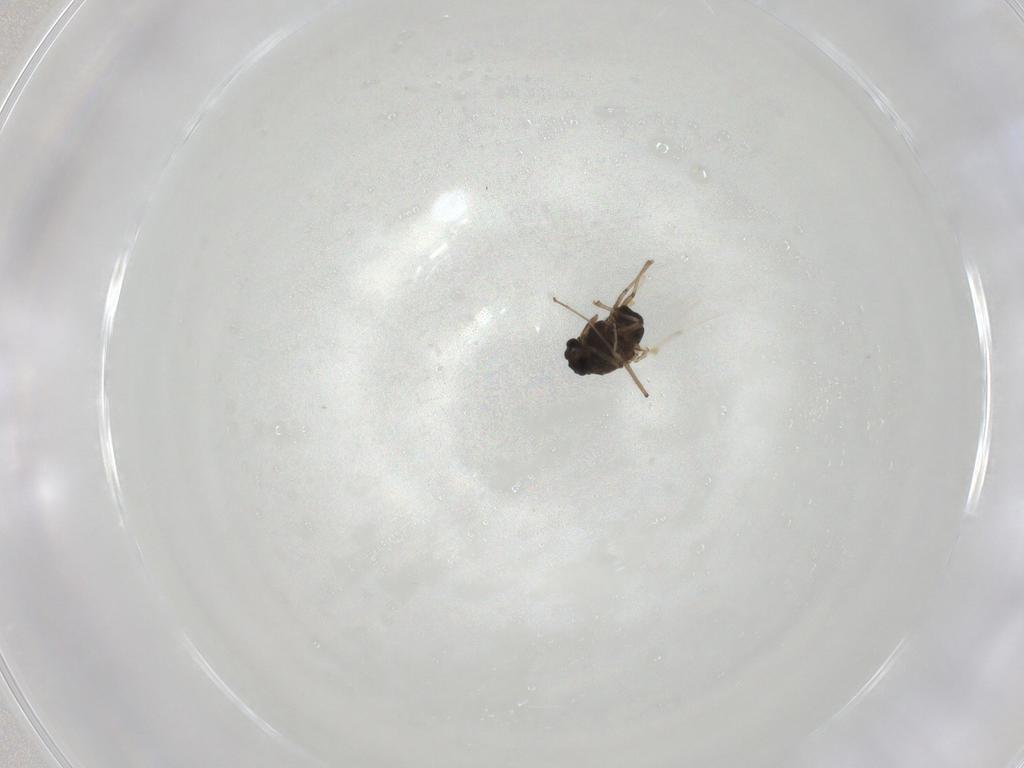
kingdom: Animalia
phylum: Arthropoda
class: Insecta
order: Diptera
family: Chironomidae
